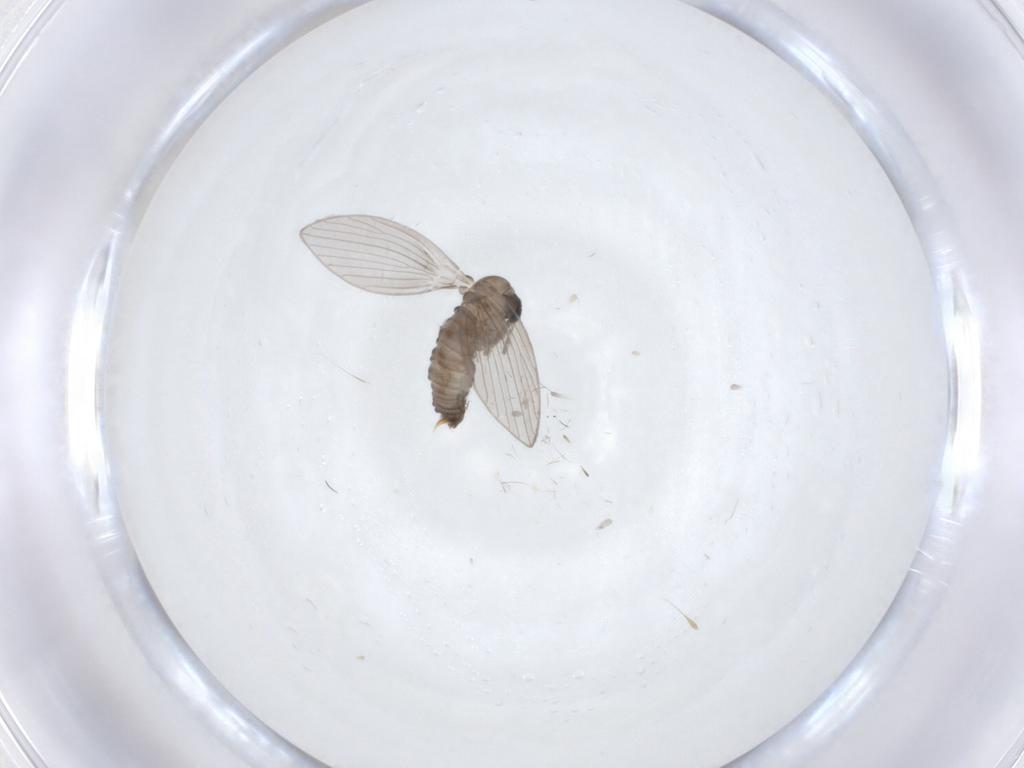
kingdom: Animalia
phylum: Arthropoda
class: Insecta
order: Diptera
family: Psychodidae
